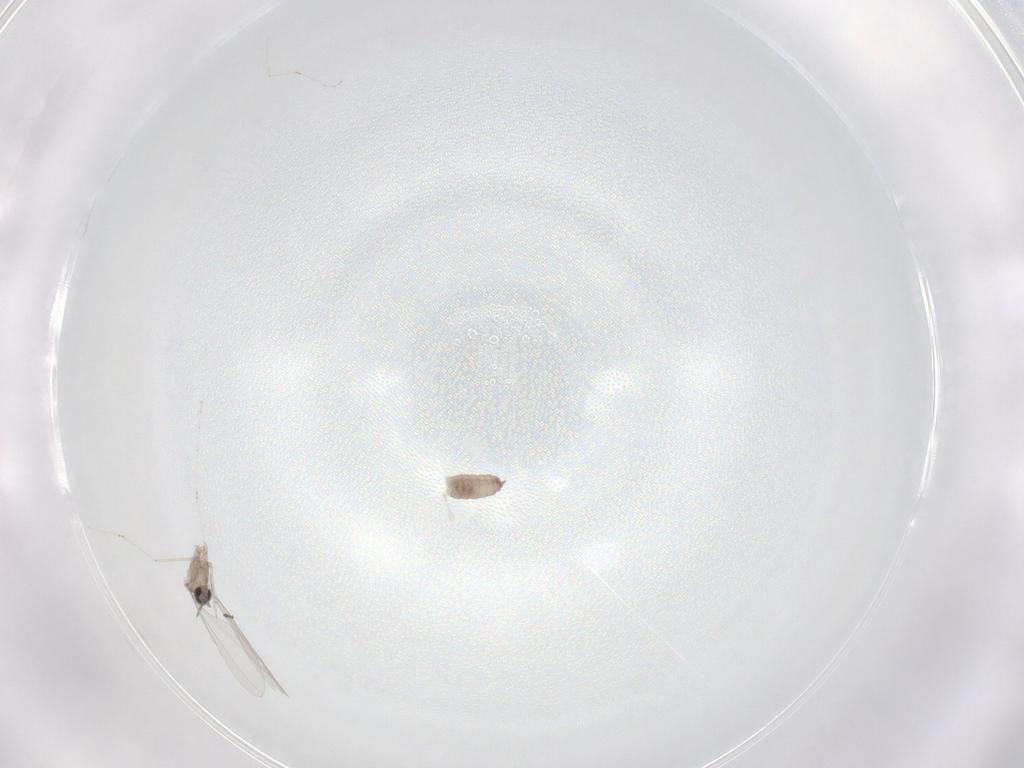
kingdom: Animalia
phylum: Arthropoda
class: Insecta
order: Diptera
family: Cecidomyiidae
